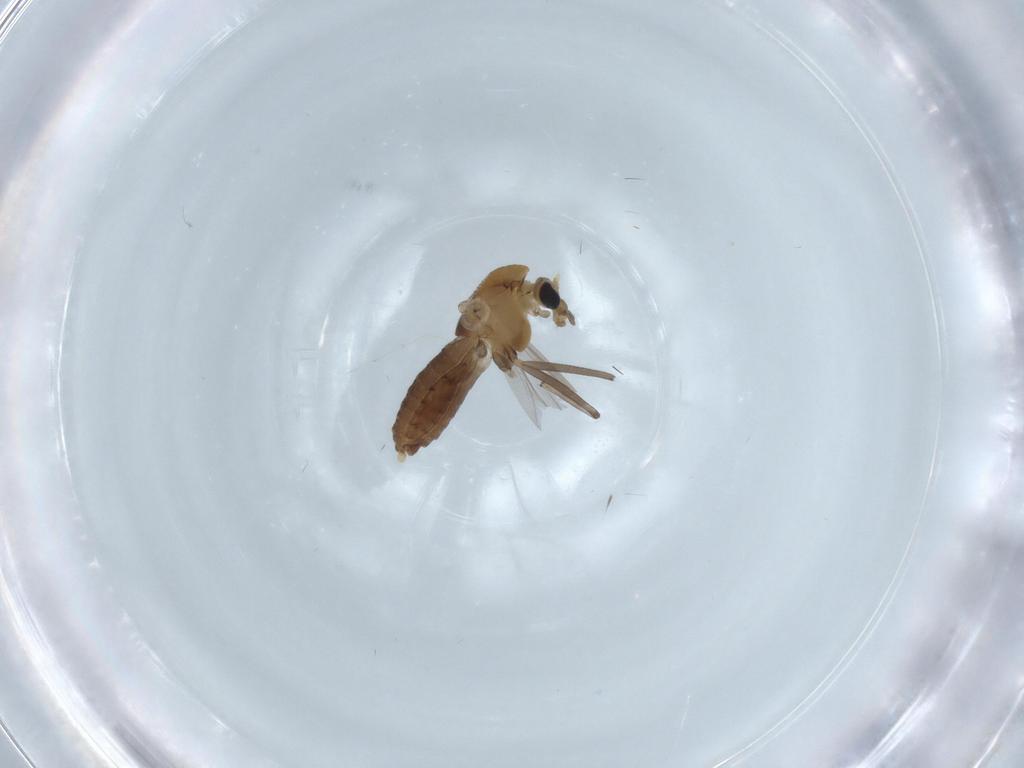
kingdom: Animalia
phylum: Arthropoda
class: Insecta
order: Diptera
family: Chironomidae
